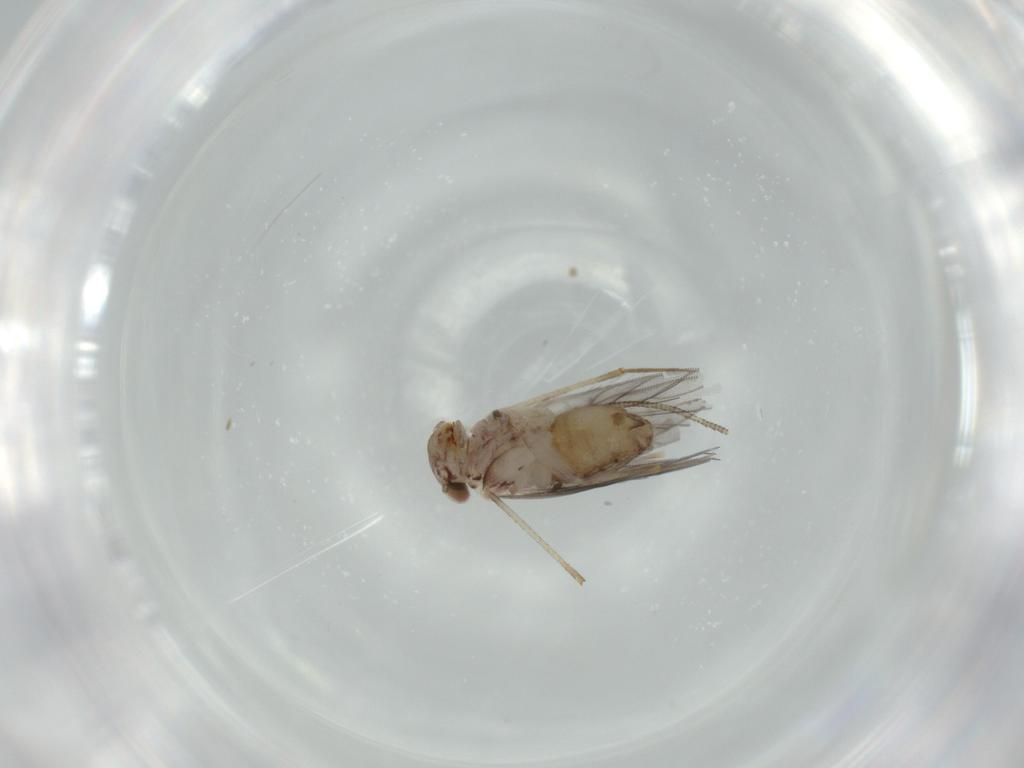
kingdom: Animalia
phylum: Arthropoda
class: Insecta
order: Psocodea
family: Lepidopsocidae
